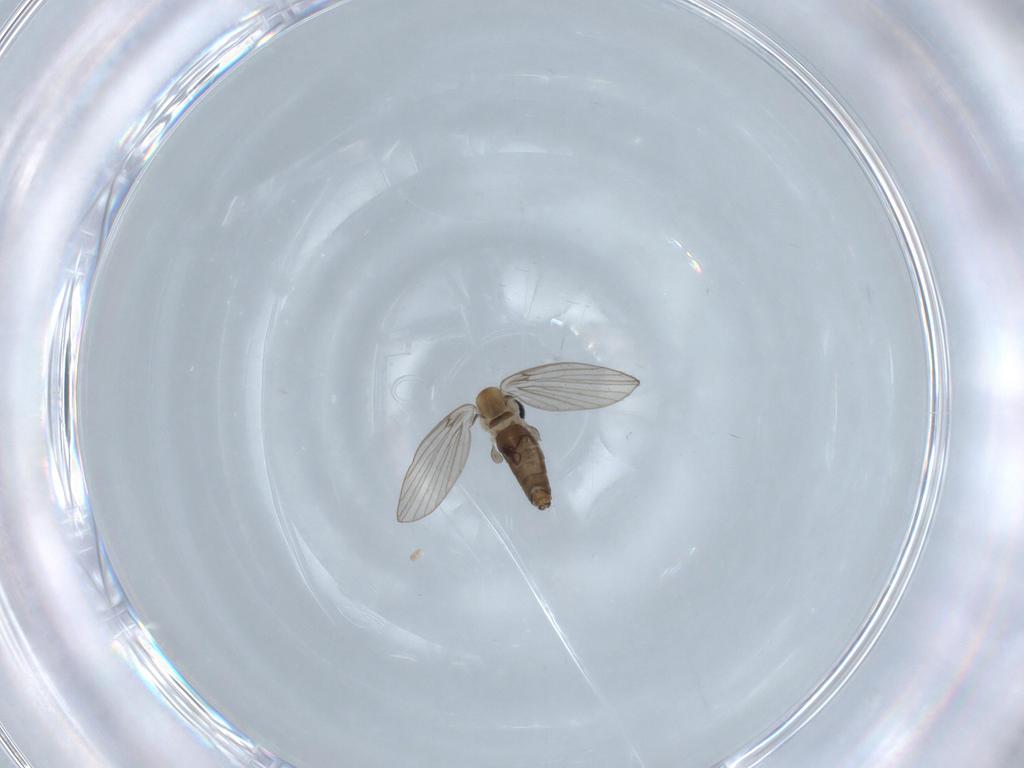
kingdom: Animalia
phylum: Arthropoda
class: Insecta
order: Diptera
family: Psychodidae
